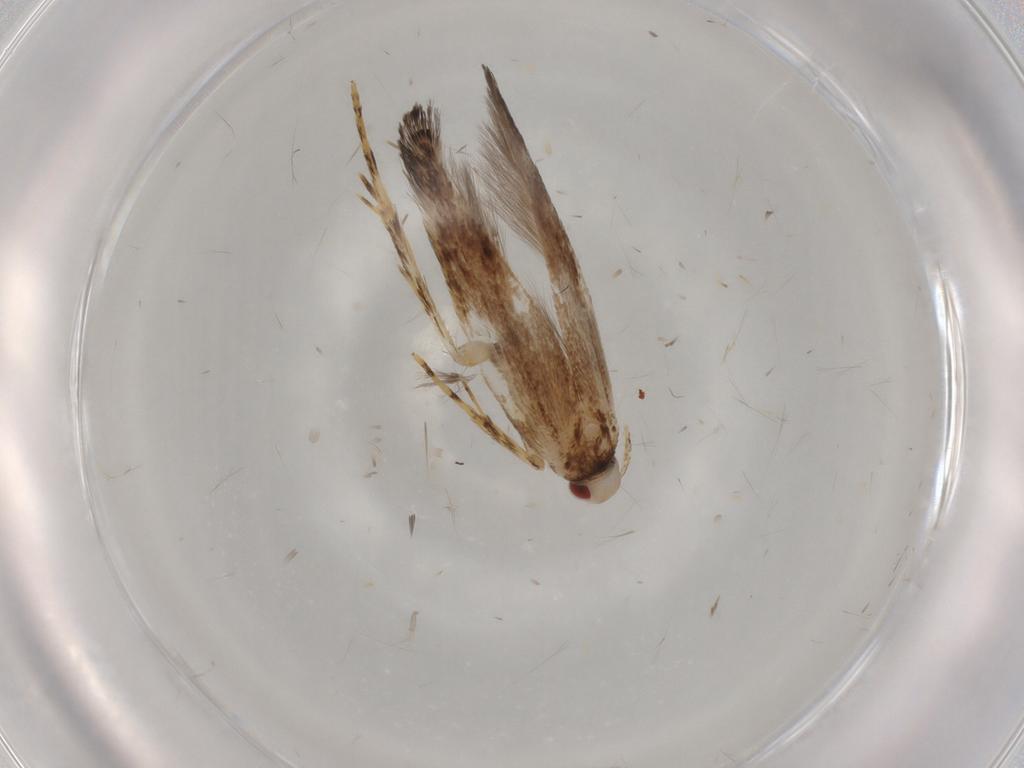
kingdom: Animalia
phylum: Arthropoda
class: Insecta
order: Lepidoptera
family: Cosmopterigidae
